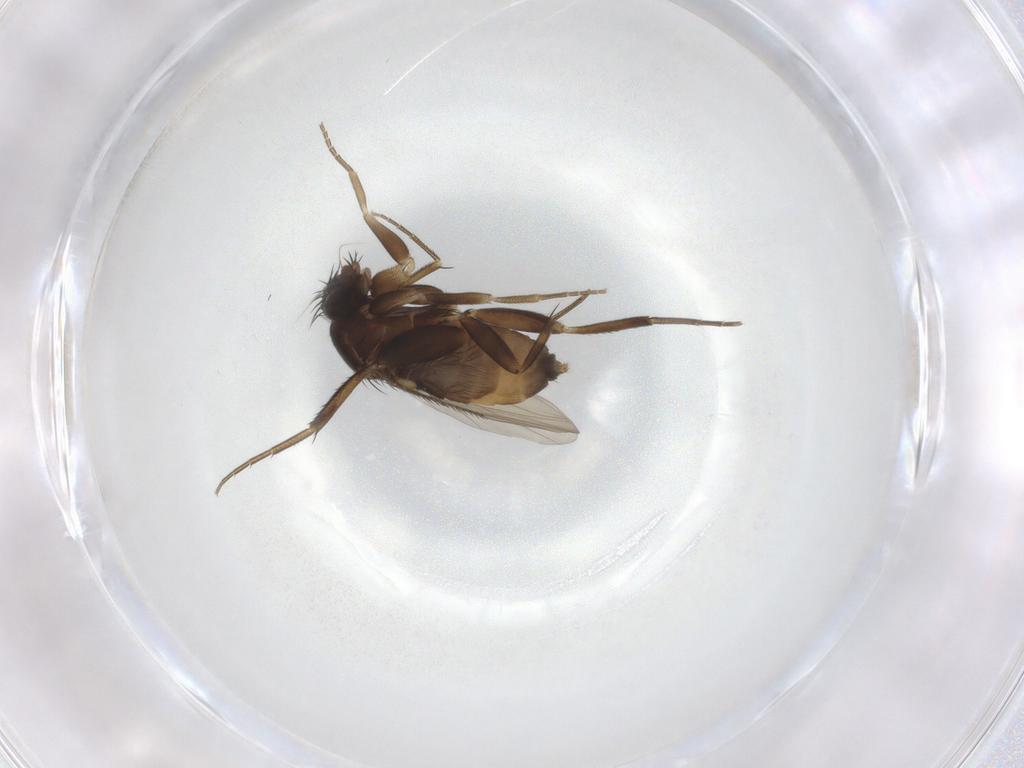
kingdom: Animalia
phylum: Arthropoda
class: Insecta
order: Diptera
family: Phoridae
